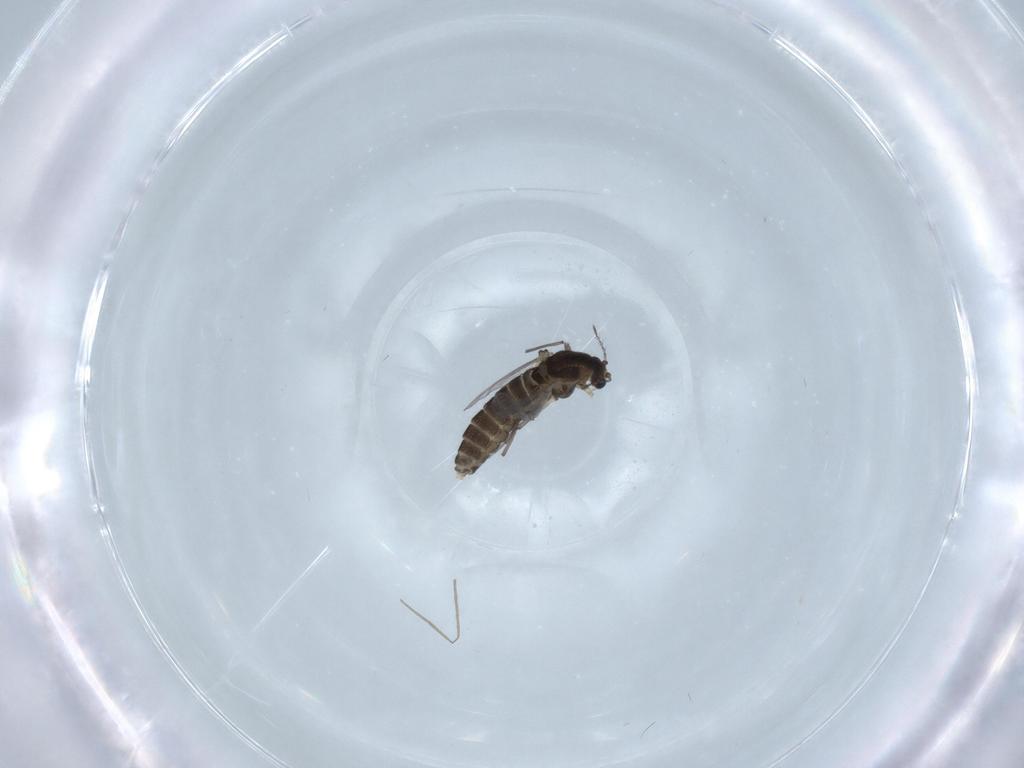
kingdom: Animalia
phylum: Arthropoda
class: Insecta
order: Diptera
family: Chironomidae
